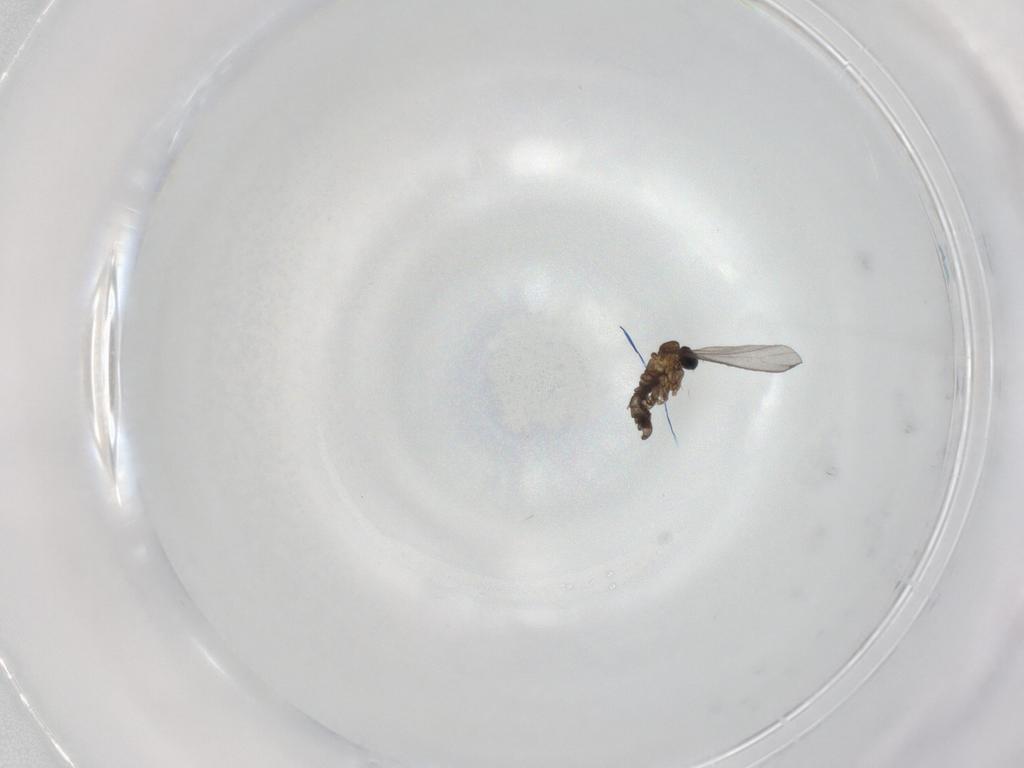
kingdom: Animalia
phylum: Arthropoda
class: Insecta
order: Diptera
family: Sciaridae
